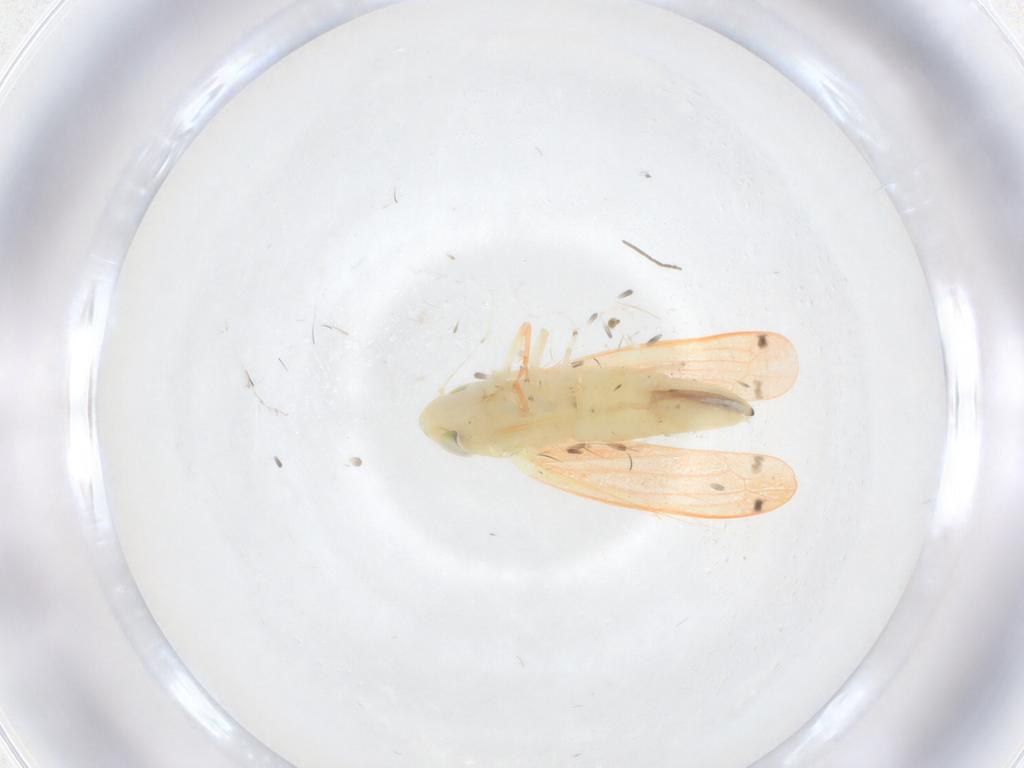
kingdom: Animalia
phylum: Arthropoda
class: Insecta
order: Hemiptera
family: Cicadellidae
